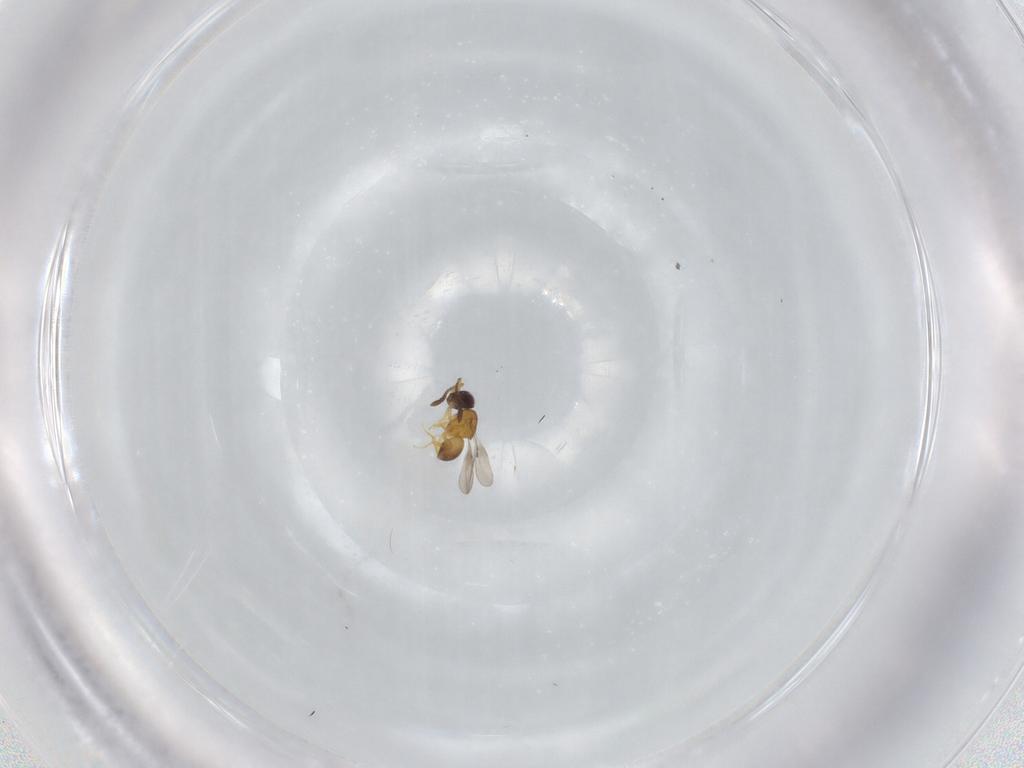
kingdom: Animalia
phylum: Arthropoda
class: Insecta
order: Hymenoptera
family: Ceraphronidae
